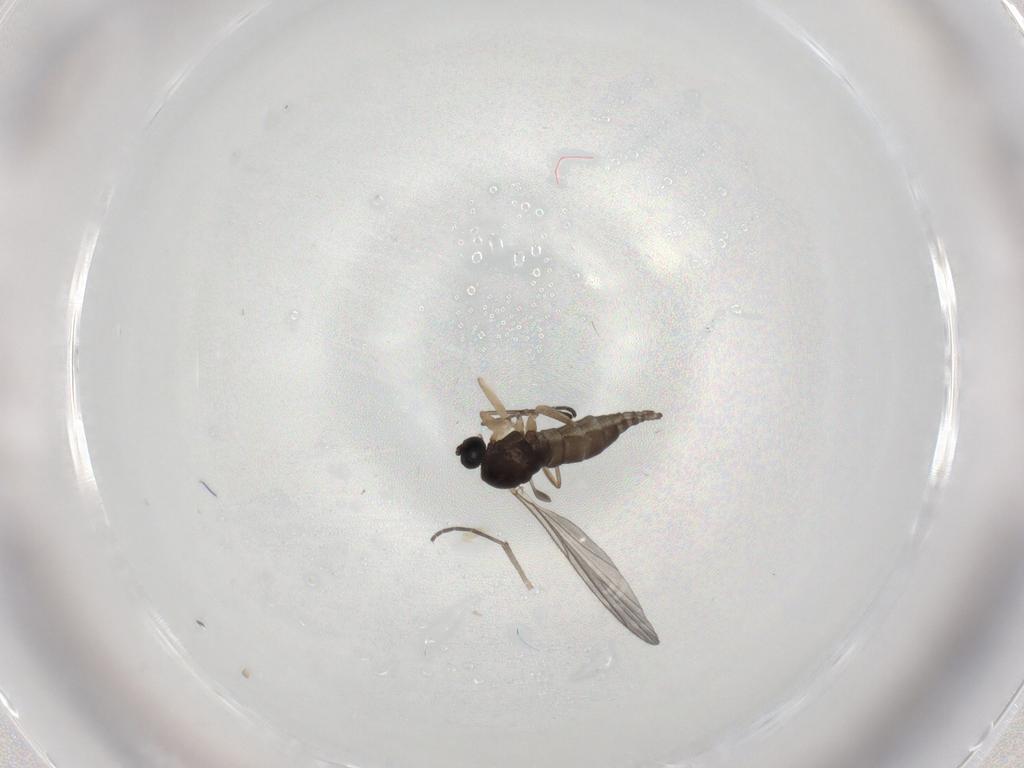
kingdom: Animalia
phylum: Arthropoda
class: Insecta
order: Diptera
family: Sciaridae
